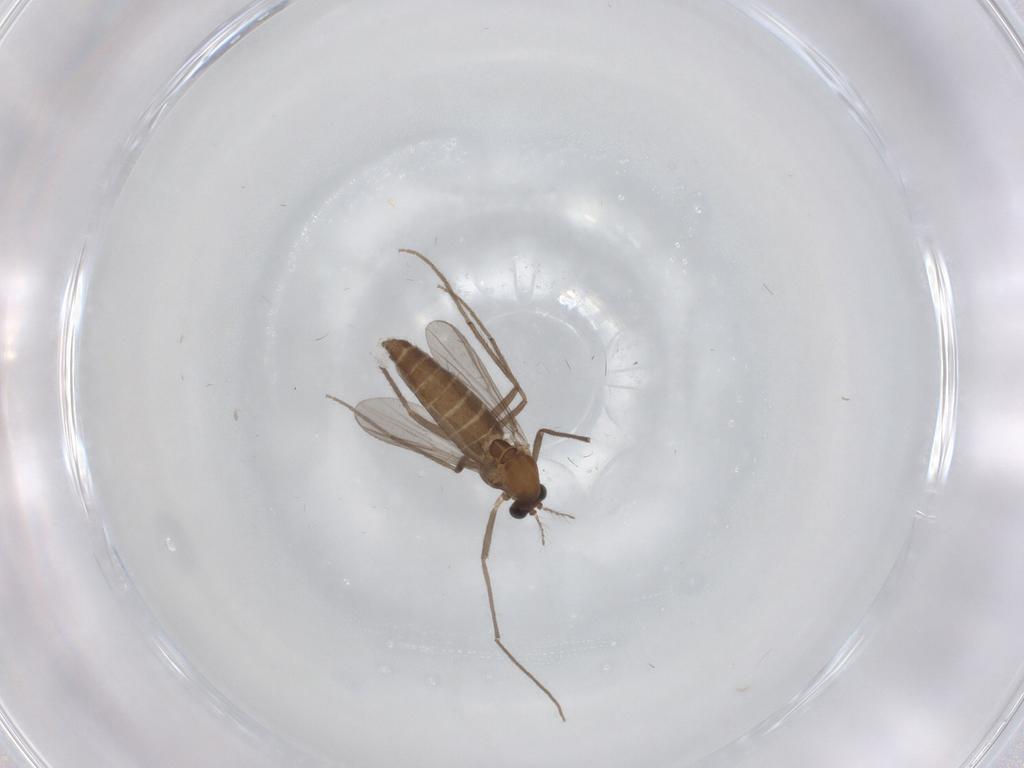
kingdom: Animalia
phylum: Arthropoda
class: Insecta
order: Diptera
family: Chironomidae
